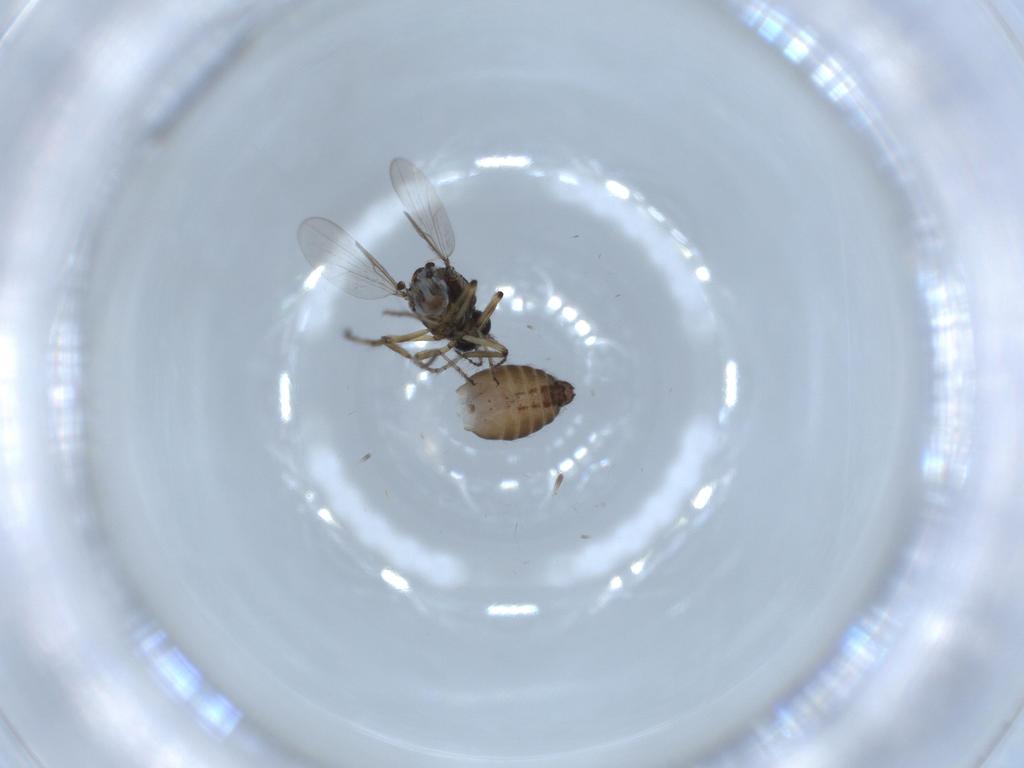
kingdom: Animalia
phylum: Arthropoda
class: Insecta
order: Diptera
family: Ceratopogonidae
